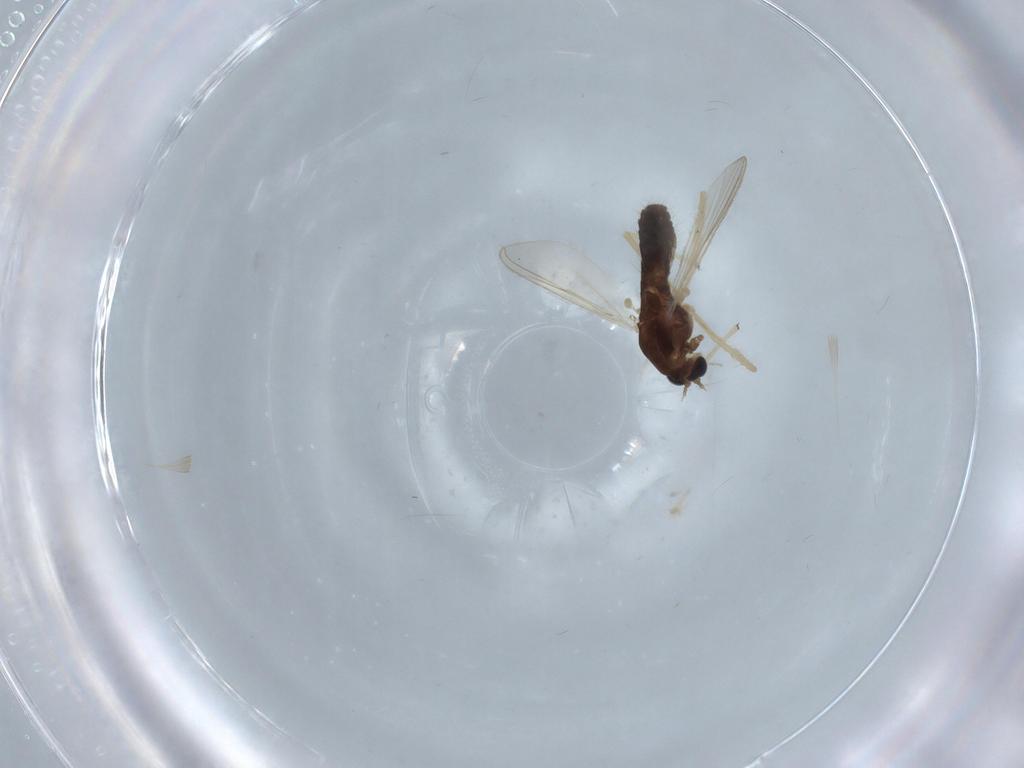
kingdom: Animalia
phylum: Arthropoda
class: Insecta
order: Diptera
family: Chironomidae
